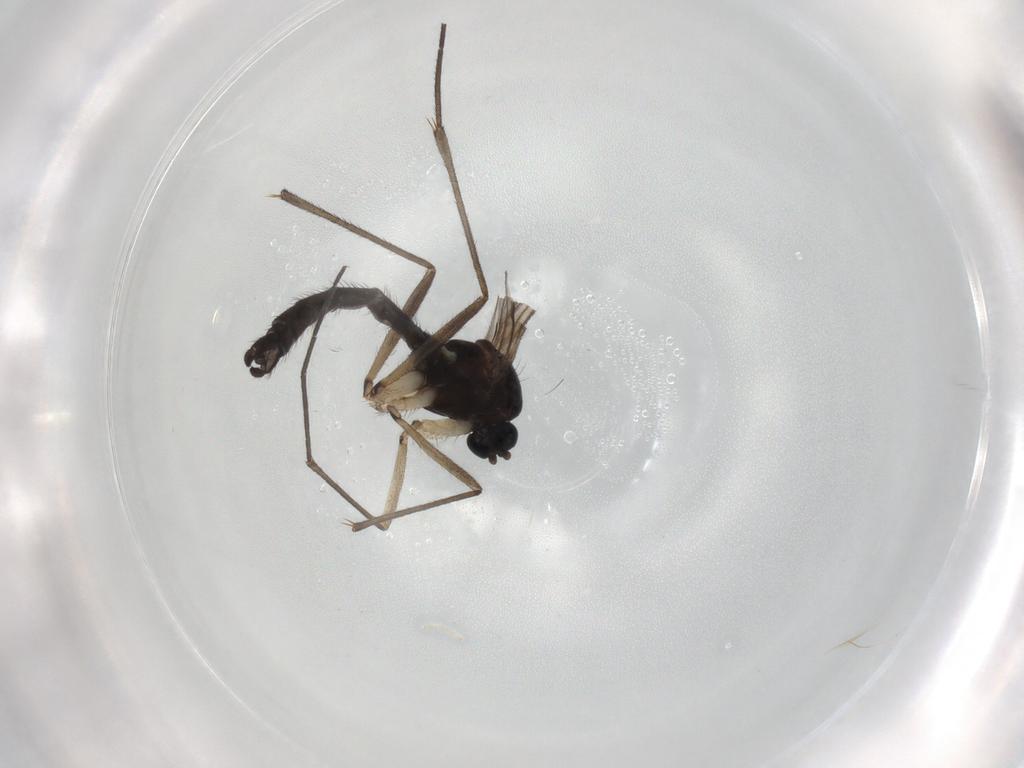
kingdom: Animalia
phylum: Arthropoda
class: Insecta
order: Diptera
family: Sciaridae
